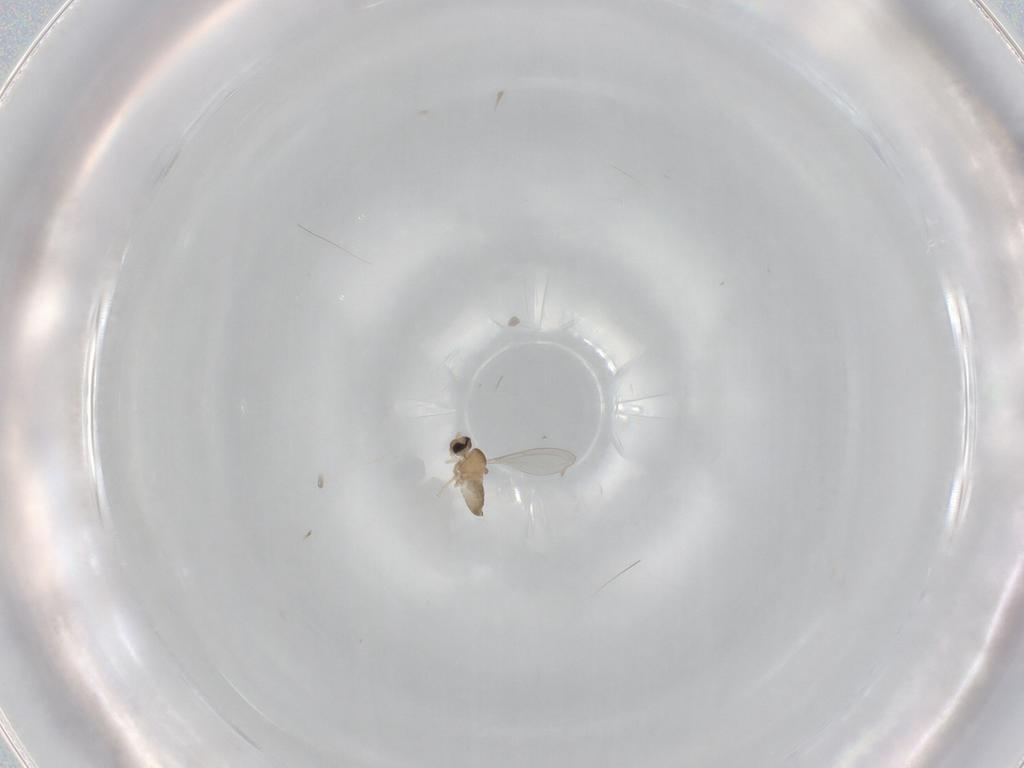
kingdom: Animalia
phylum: Arthropoda
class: Insecta
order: Diptera
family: Cecidomyiidae
